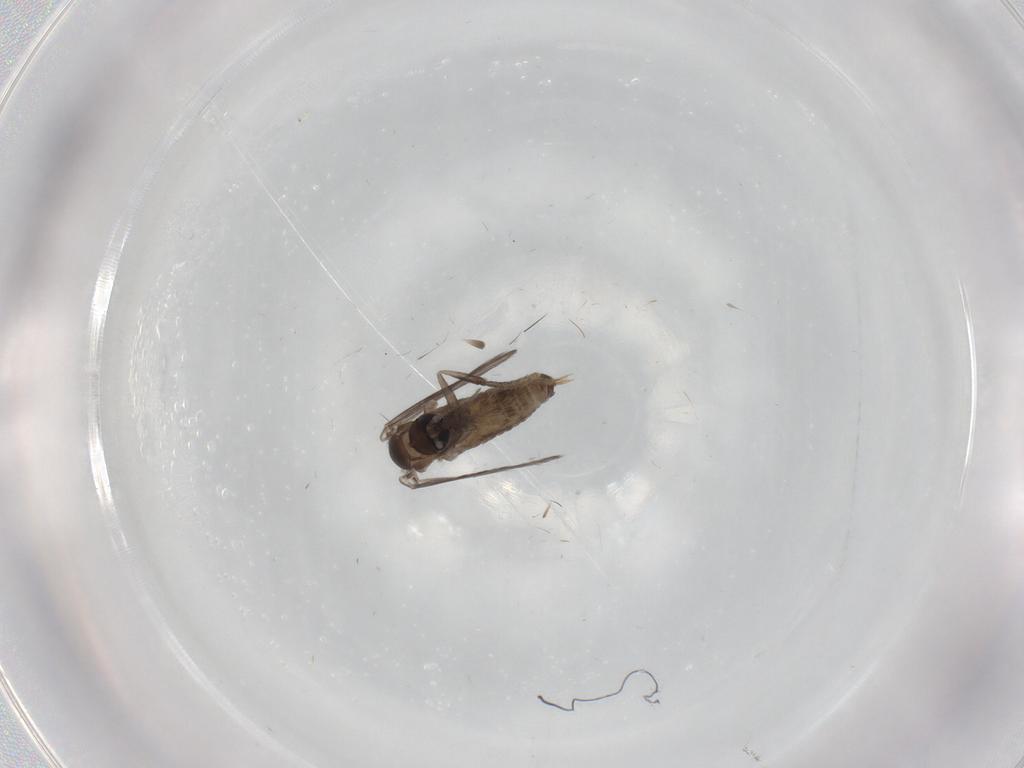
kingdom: Animalia
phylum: Arthropoda
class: Insecta
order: Diptera
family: Psychodidae
